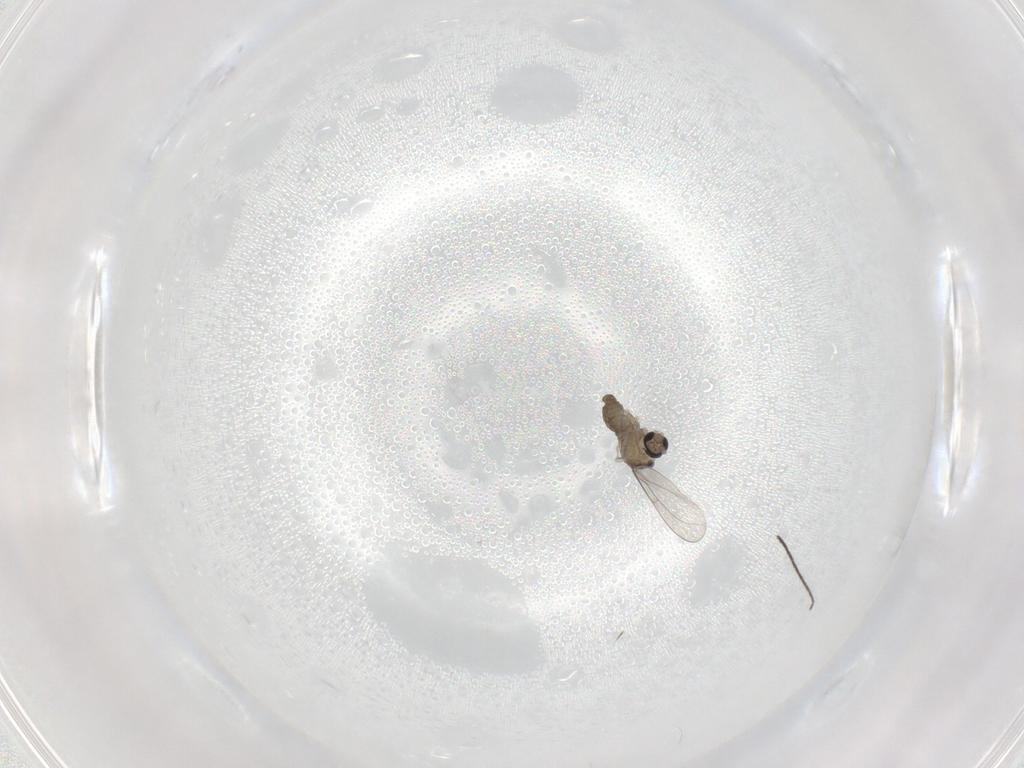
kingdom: Animalia
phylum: Arthropoda
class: Insecta
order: Diptera
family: Cecidomyiidae
